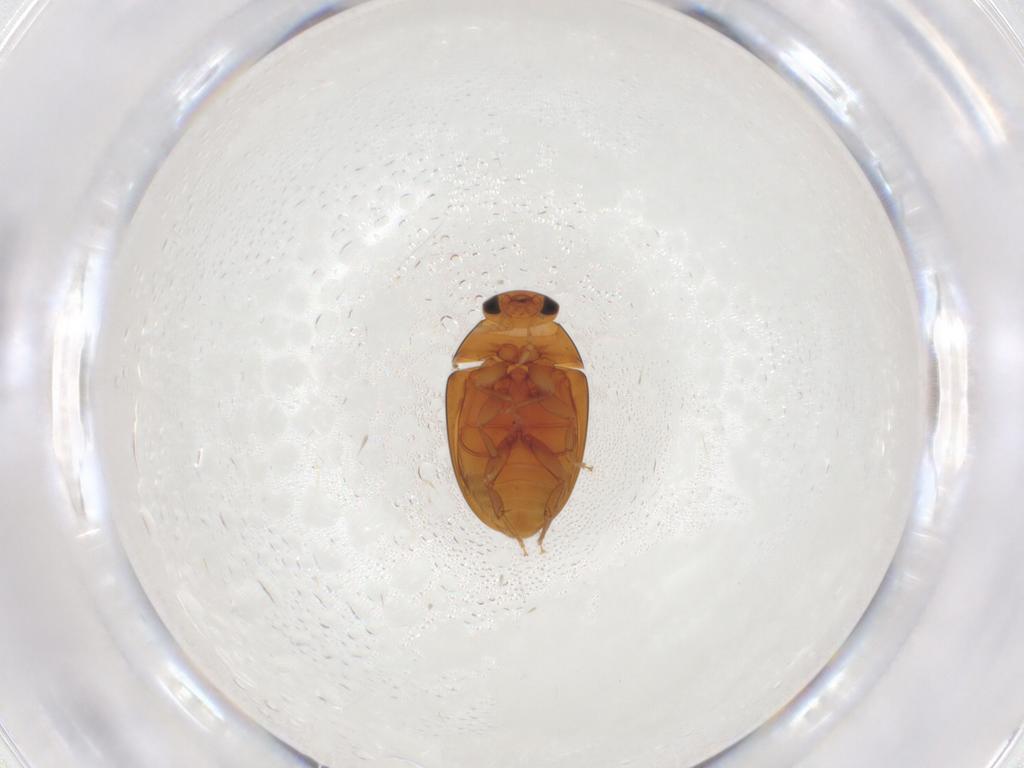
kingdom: Animalia
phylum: Arthropoda
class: Insecta
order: Coleoptera
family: Phalacridae
